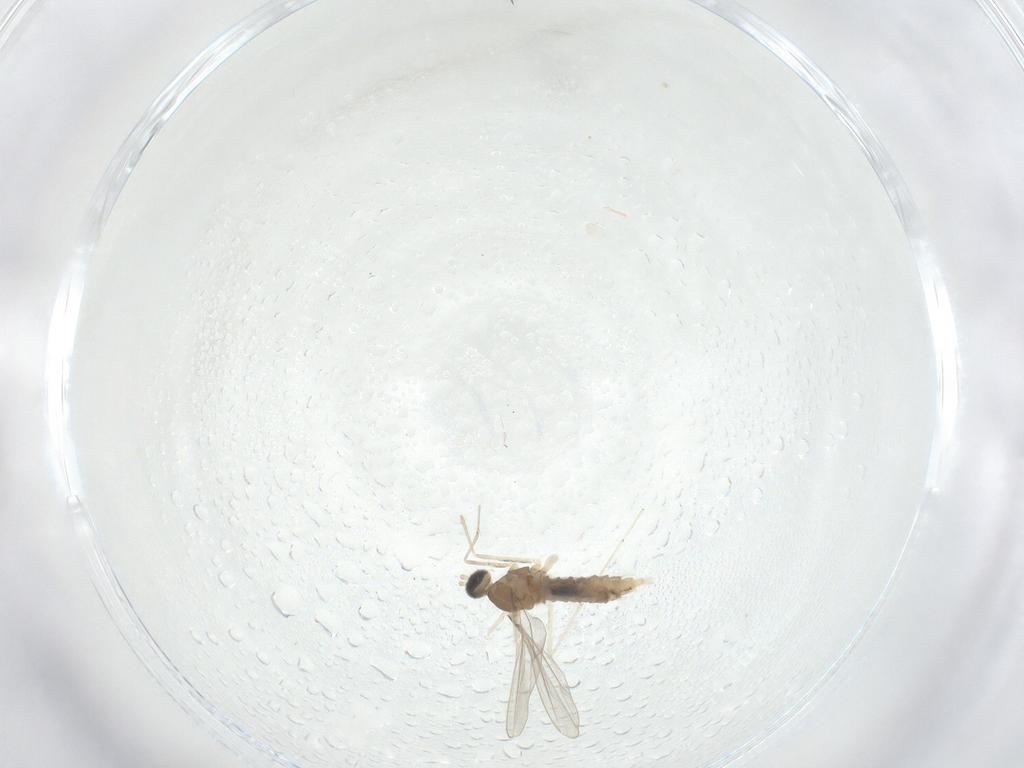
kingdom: Animalia
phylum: Arthropoda
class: Insecta
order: Diptera
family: Cecidomyiidae
